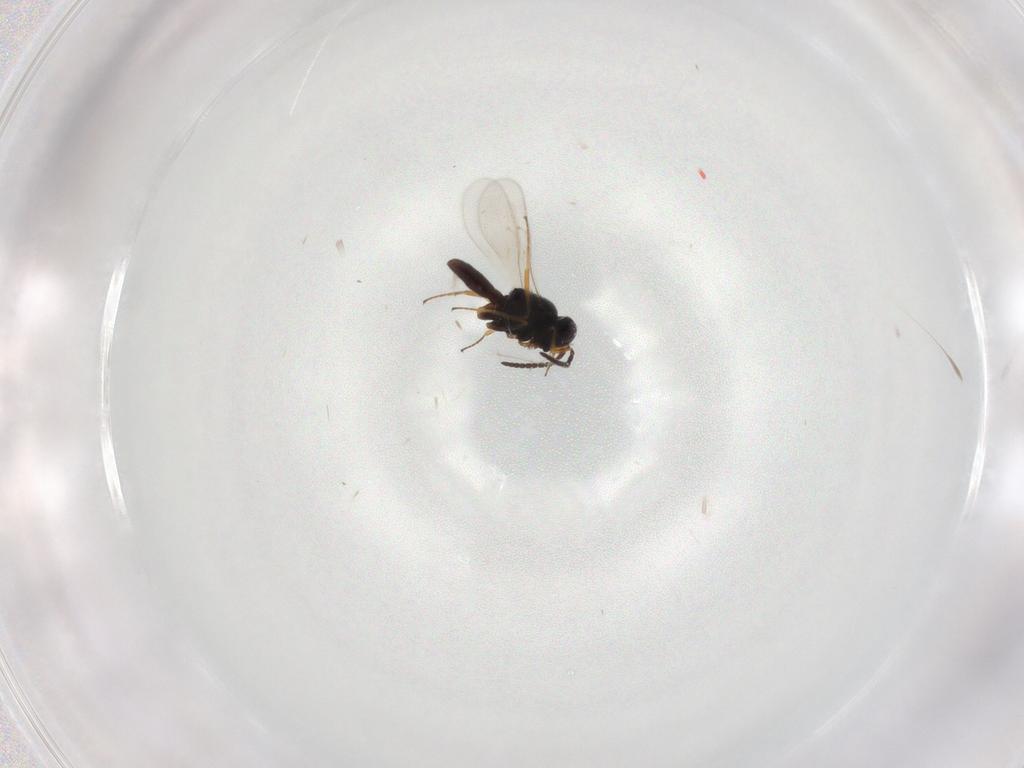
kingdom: Animalia
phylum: Arthropoda
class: Insecta
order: Hymenoptera
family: Scelionidae
